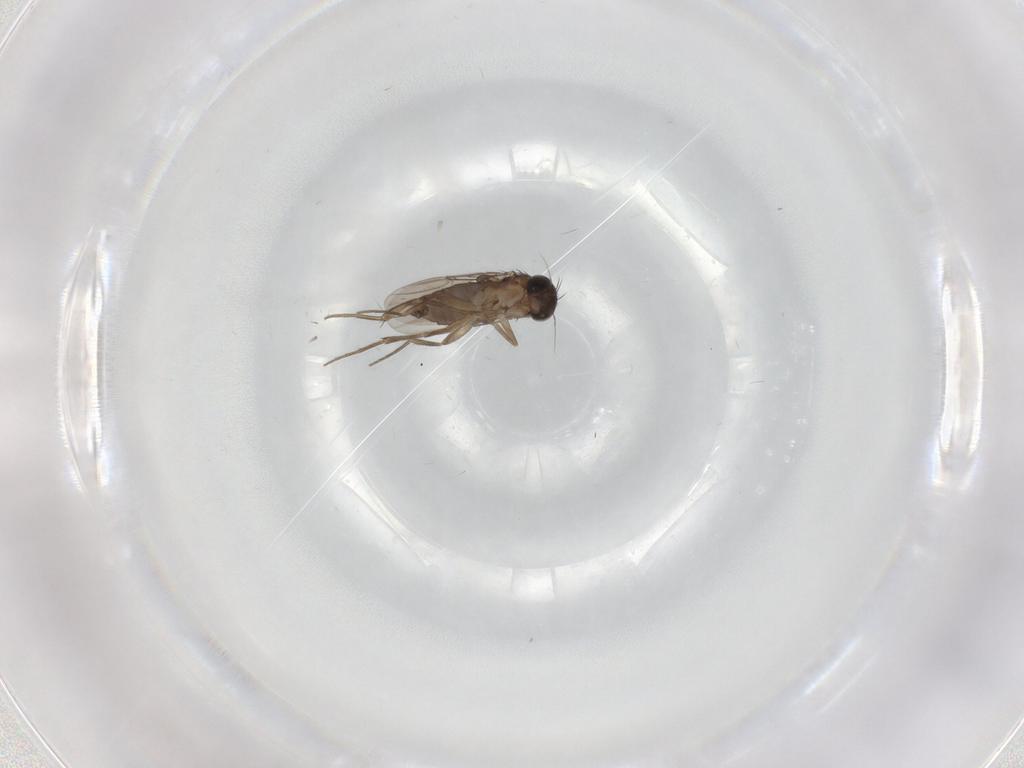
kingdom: Animalia
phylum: Arthropoda
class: Insecta
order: Diptera
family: Phoridae
